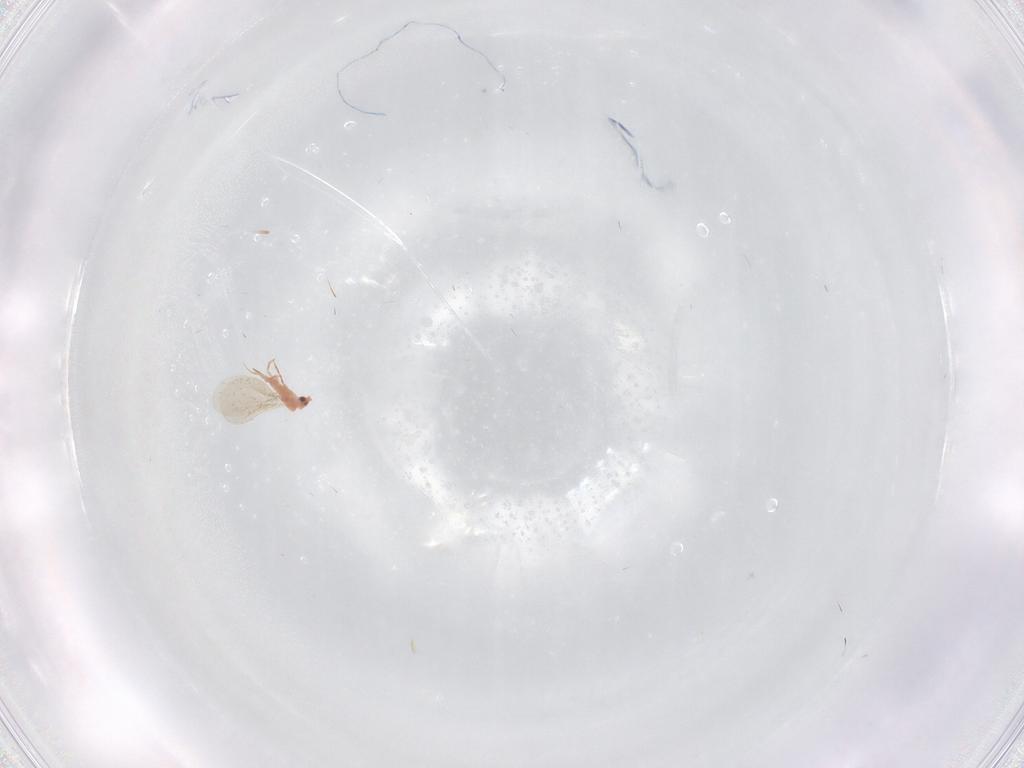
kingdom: Animalia
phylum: Arthropoda
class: Insecta
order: Hemiptera
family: Coccoidea_incertae_sedis
